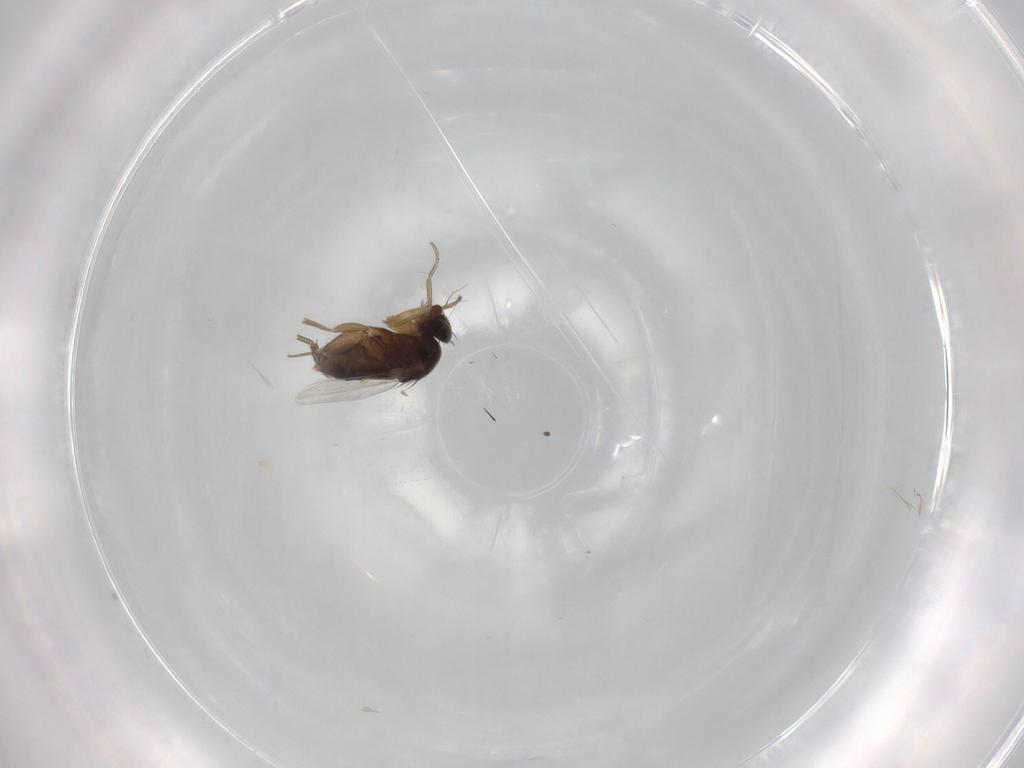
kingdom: Animalia
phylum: Arthropoda
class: Insecta
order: Diptera
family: Phoridae
